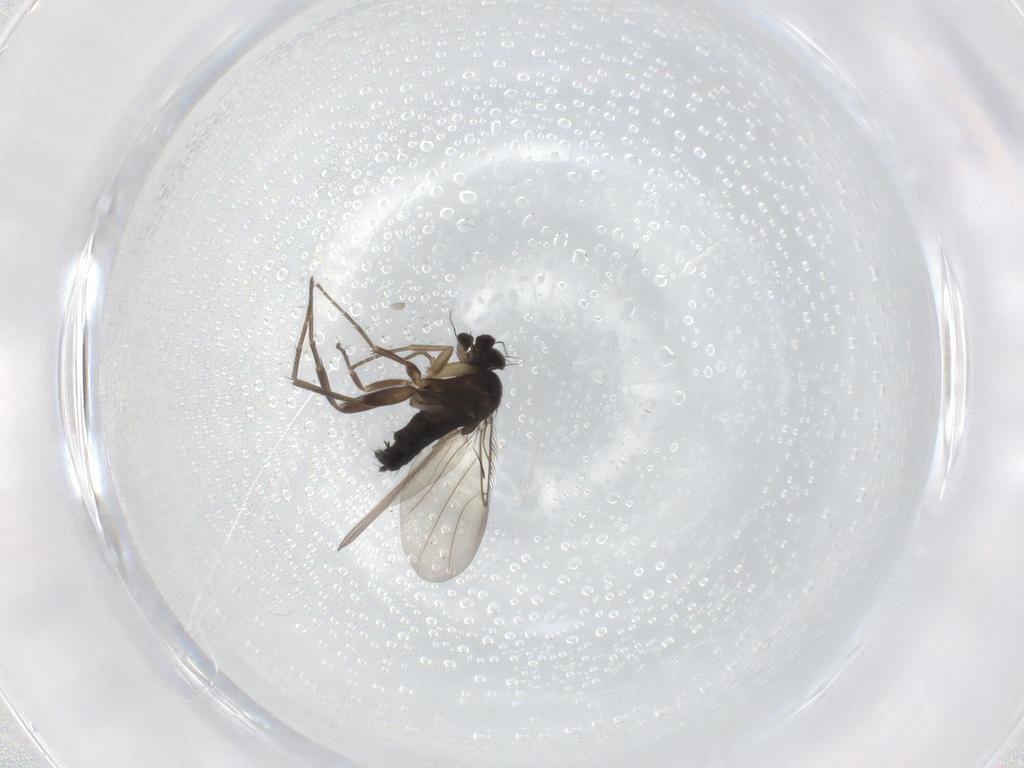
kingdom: Animalia
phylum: Arthropoda
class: Insecta
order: Diptera
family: Phoridae
